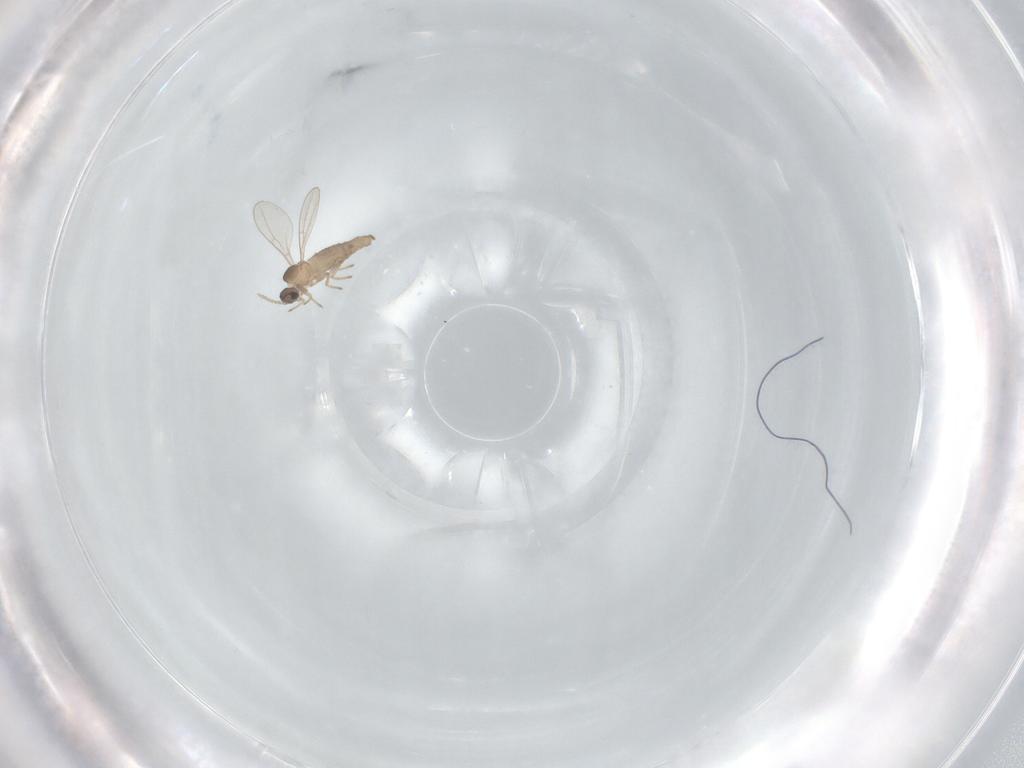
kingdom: Animalia
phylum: Arthropoda
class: Insecta
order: Diptera
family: Cecidomyiidae
